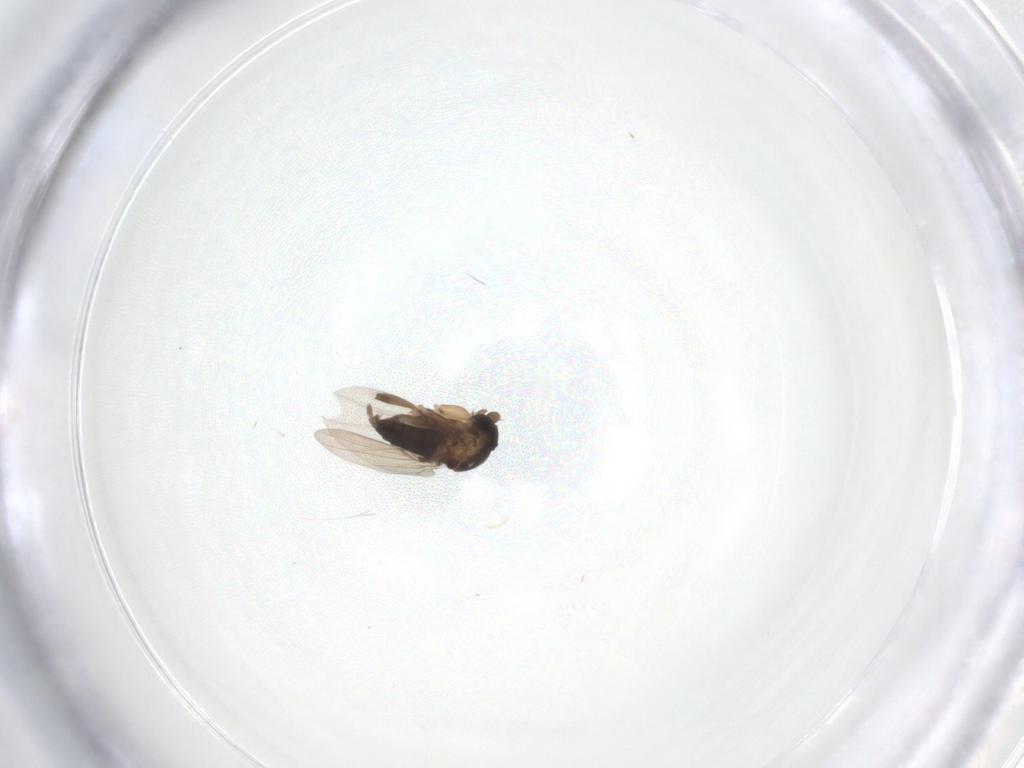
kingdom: Animalia
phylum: Arthropoda
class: Insecta
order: Diptera
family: Phoridae
